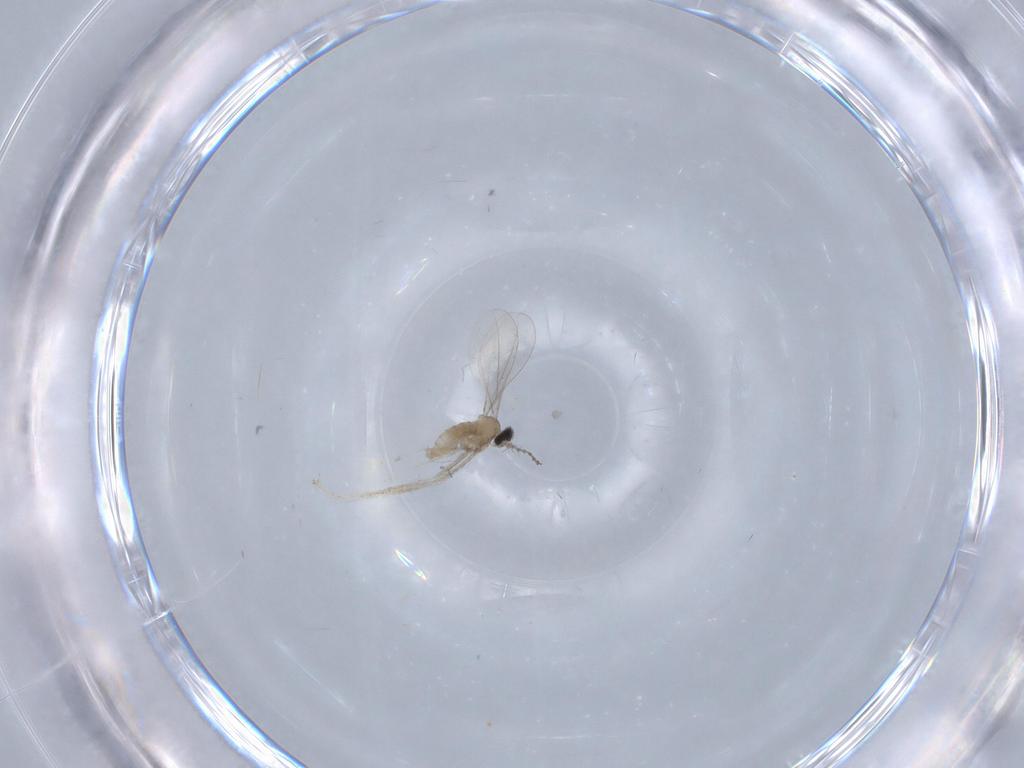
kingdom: Animalia
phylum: Arthropoda
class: Insecta
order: Diptera
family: Cecidomyiidae
